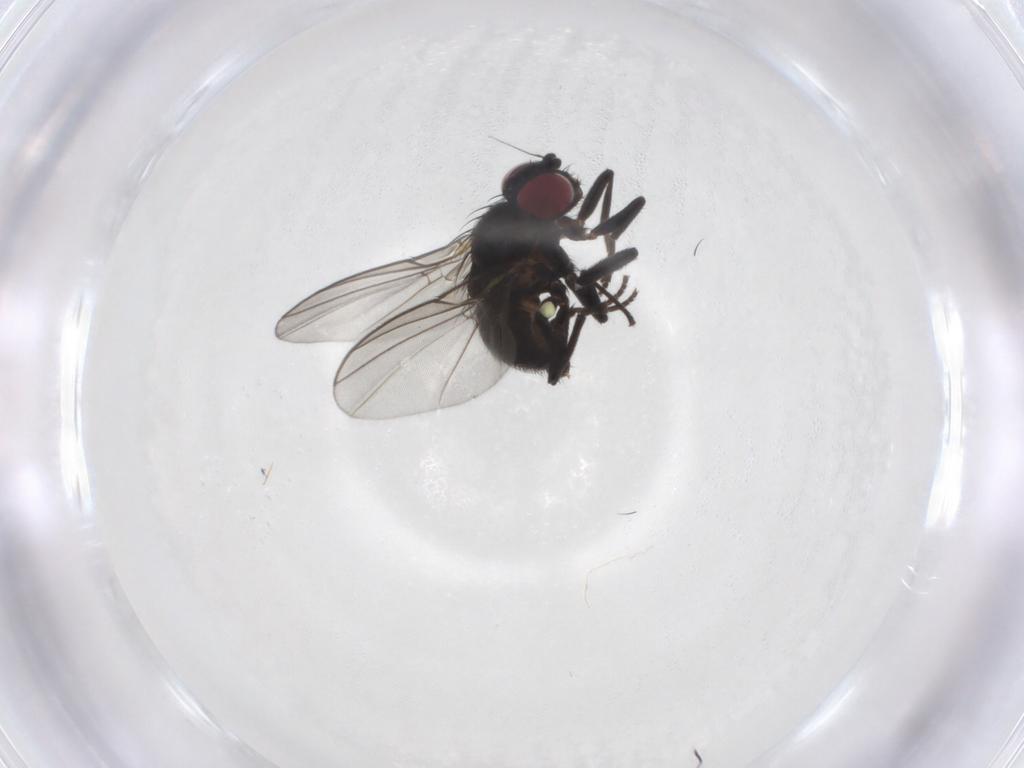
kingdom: Animalia
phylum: Arthropoda
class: Insecta
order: Diptera
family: Agromyzidae
